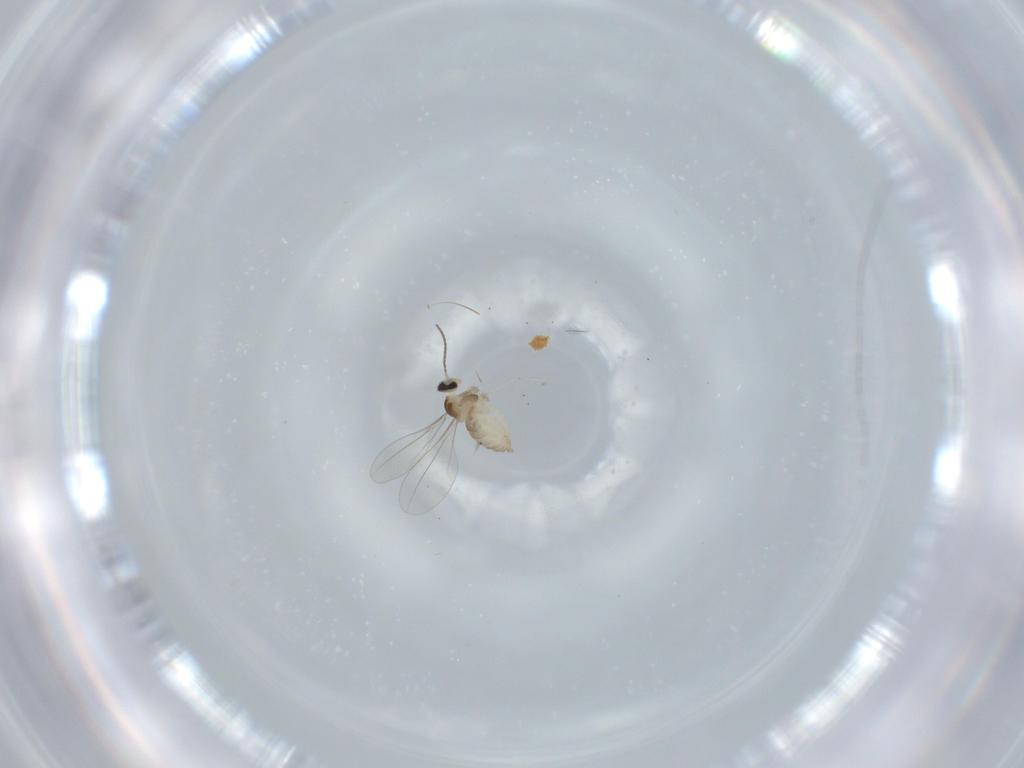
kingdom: Animalia
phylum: Arthropoda
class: Insecta
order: Diptera
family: Cecidomyiidae
